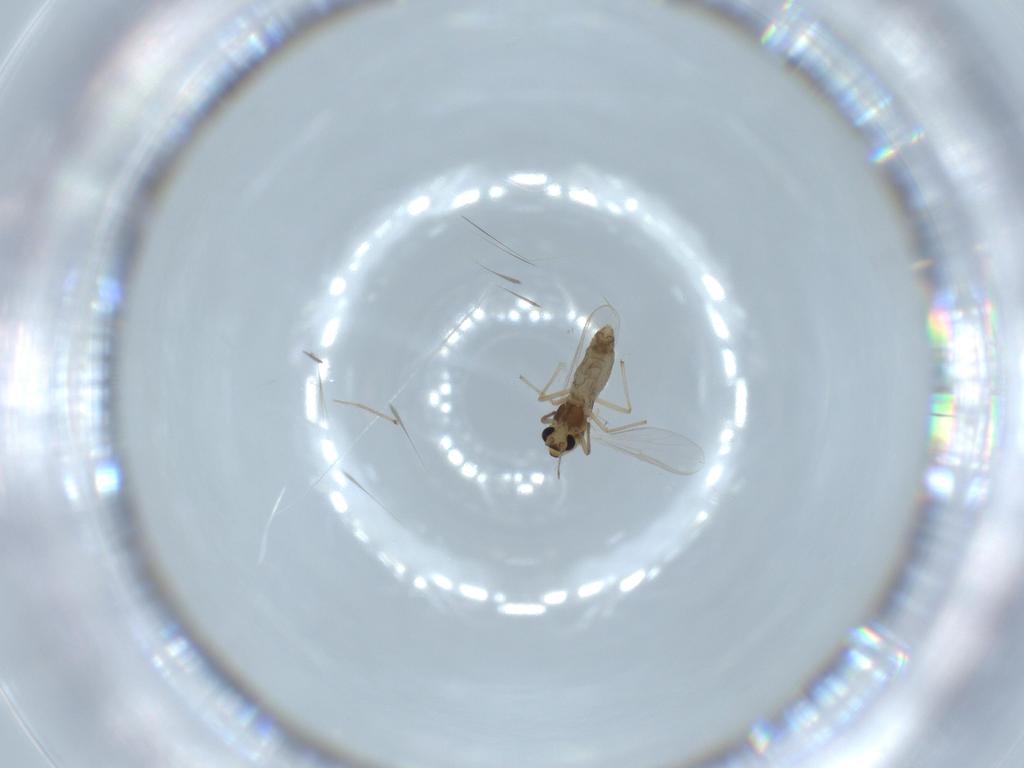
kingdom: Animalia
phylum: Arthropoda
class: Insecta
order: Diptera
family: Chironomidae
